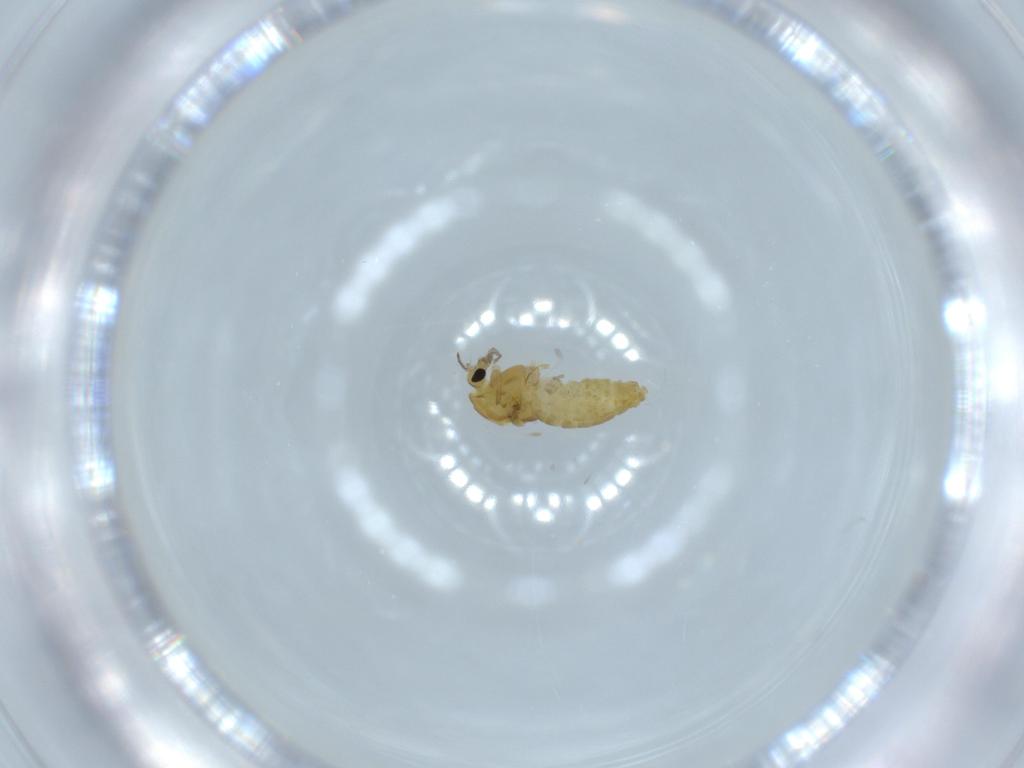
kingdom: Animalia
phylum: Arthropoda
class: Insecta
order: Diptera
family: Chironomidae
